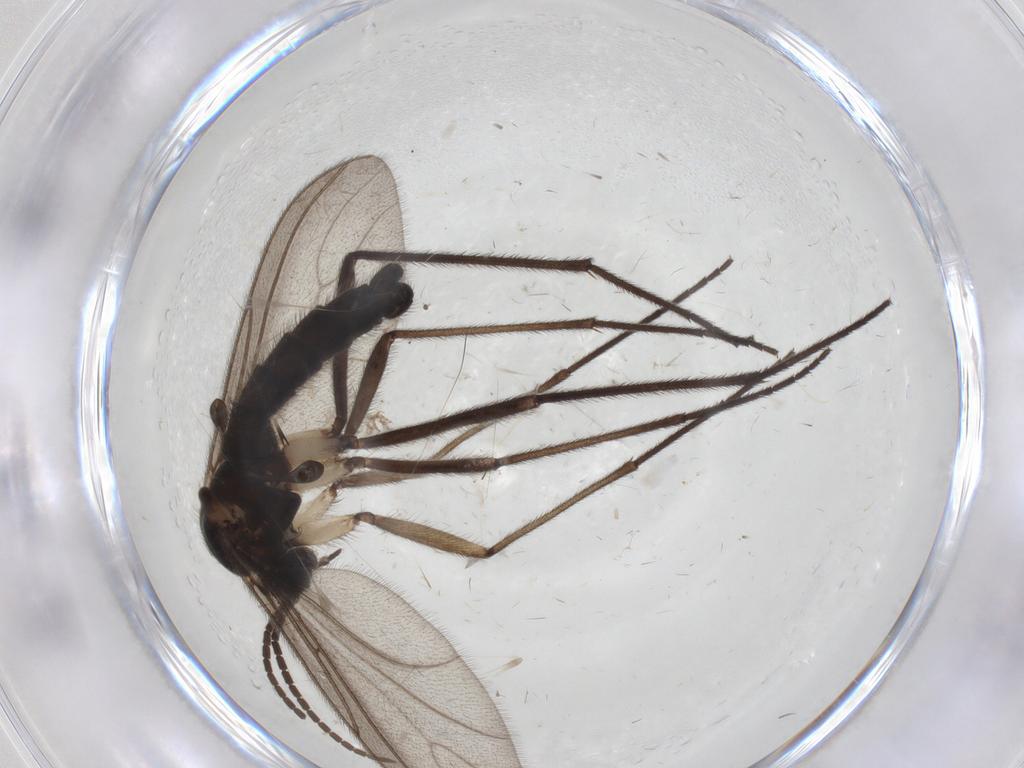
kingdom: Animalia
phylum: Arthropoda
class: Insecta
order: Diptera
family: Sciaridae
